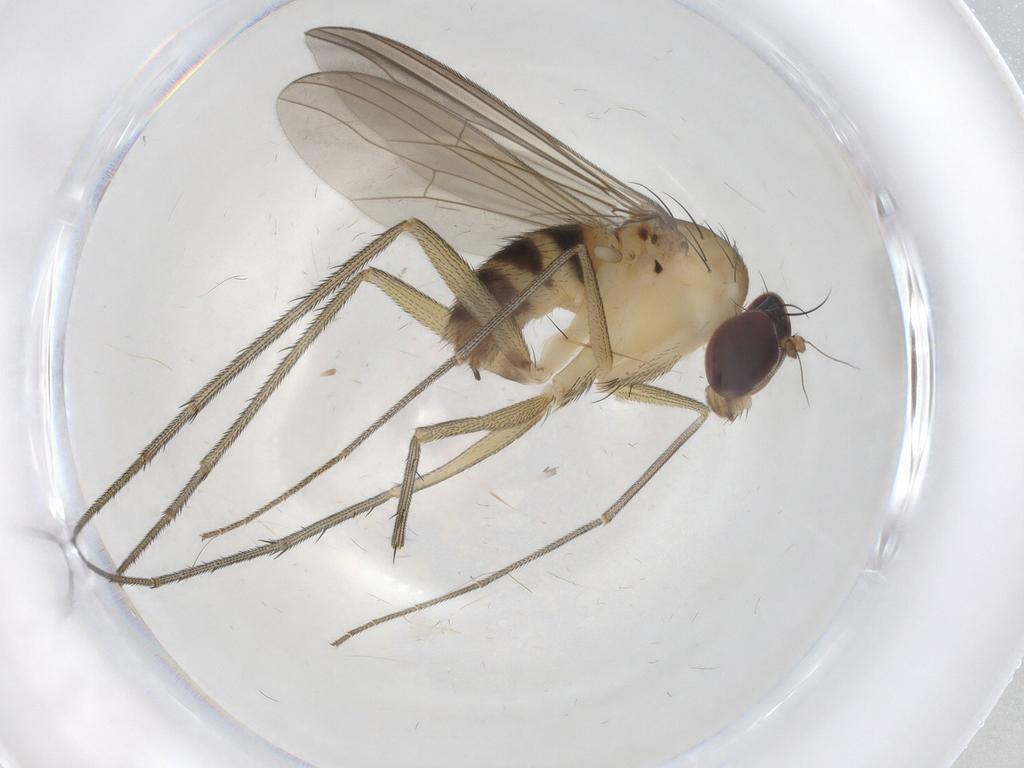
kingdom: Animalia
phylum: Arthropoda
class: Insecta
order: Diptera
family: Dolichopodidae
